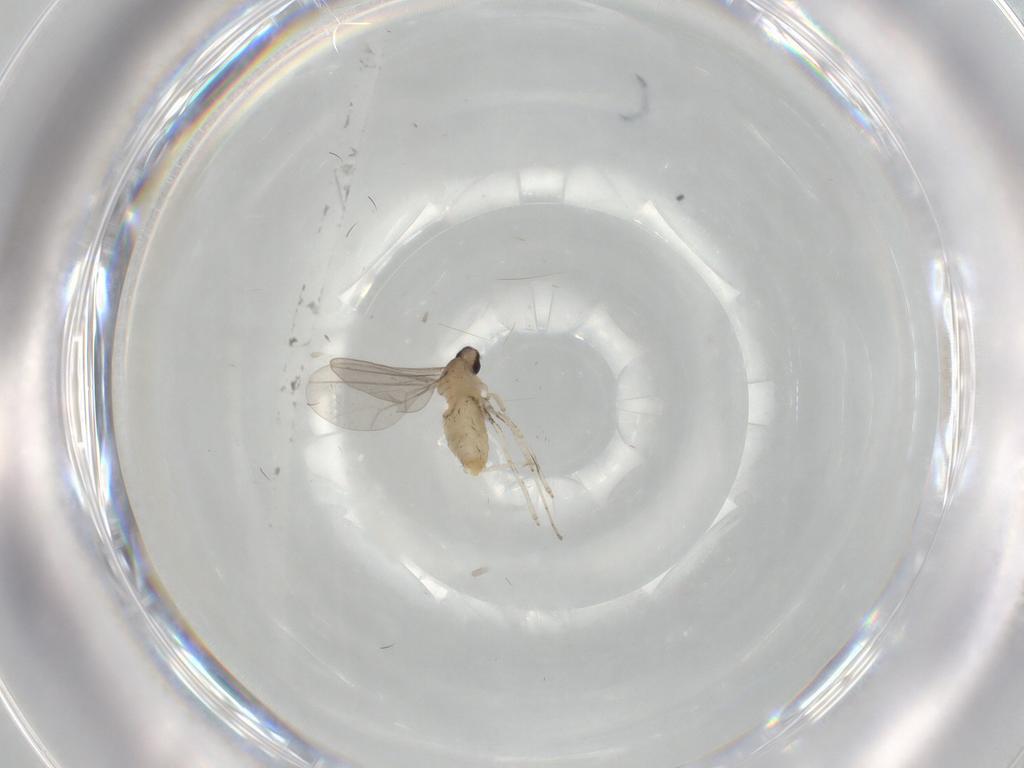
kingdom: Animalia
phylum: Arthropoda
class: Insecta
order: Diptera
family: Cecidomyiidae
